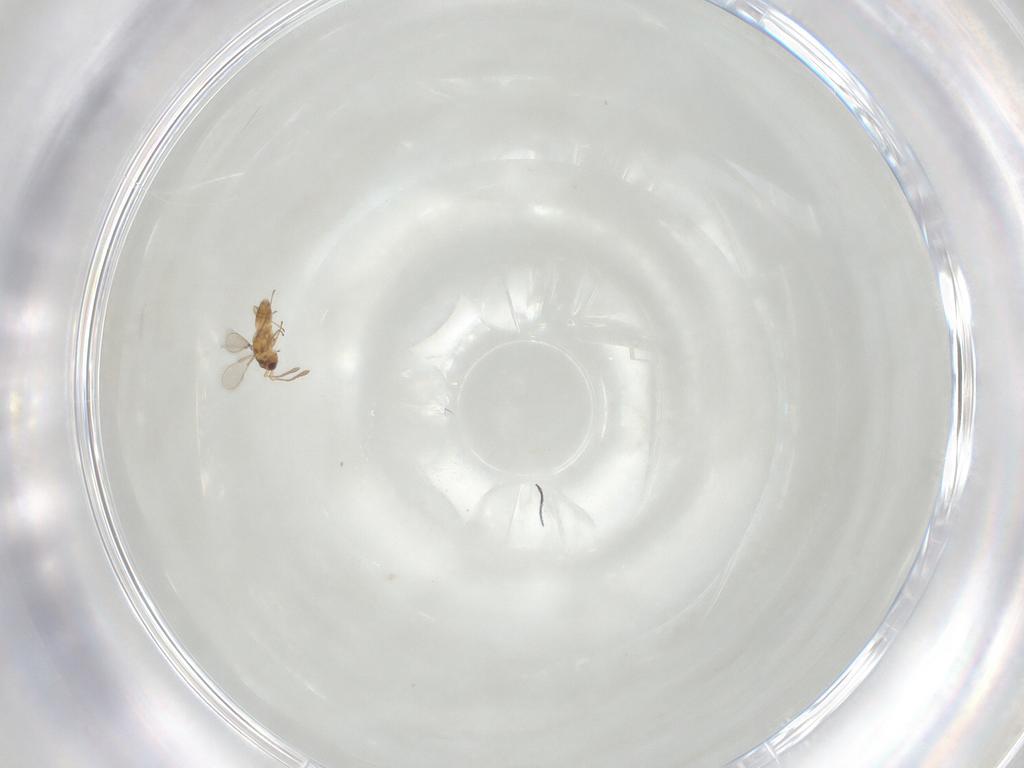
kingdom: Animalia
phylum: Arthropoda
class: Insecta
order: Hymenoptera
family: Mymaridae
